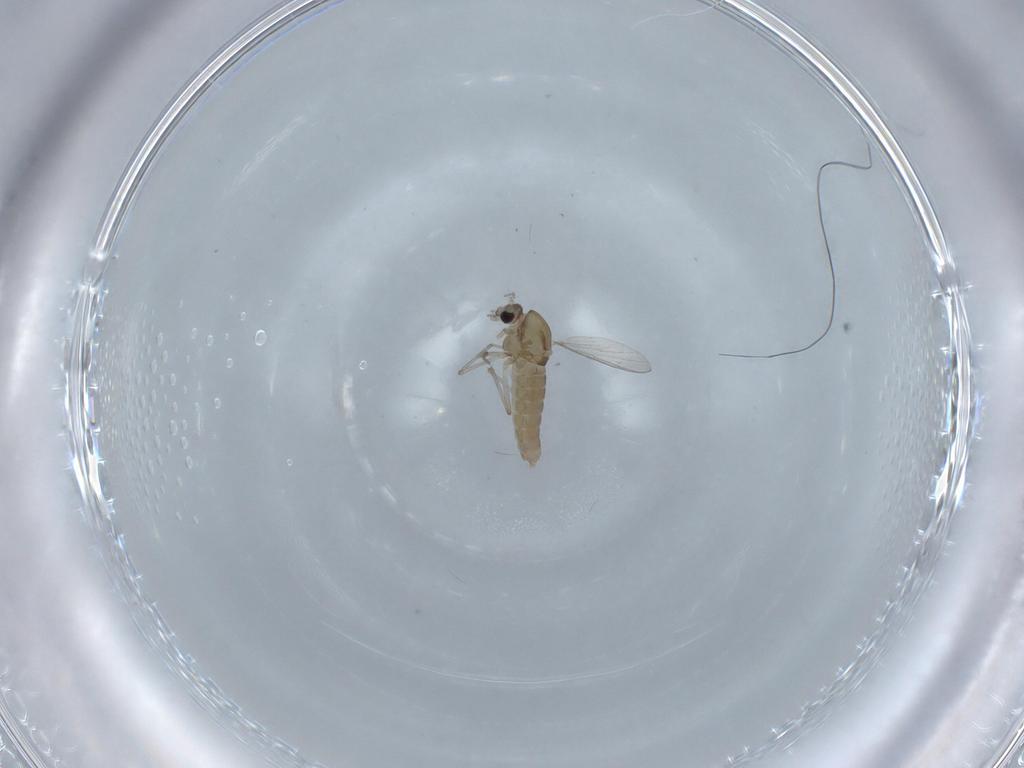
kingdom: Animalia
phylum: Arthropoda
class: Insecta
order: Diptera
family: Chironomidae
